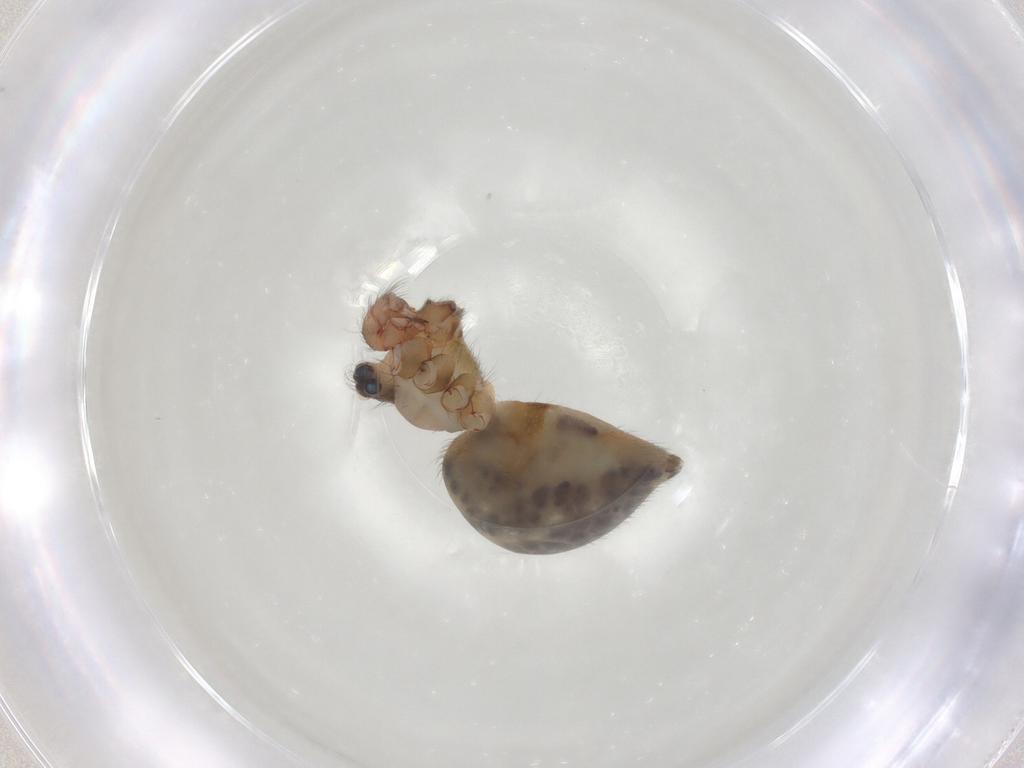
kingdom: Animalia
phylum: Arthropoda
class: Arachnida
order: Araneae
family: Pholcidae
